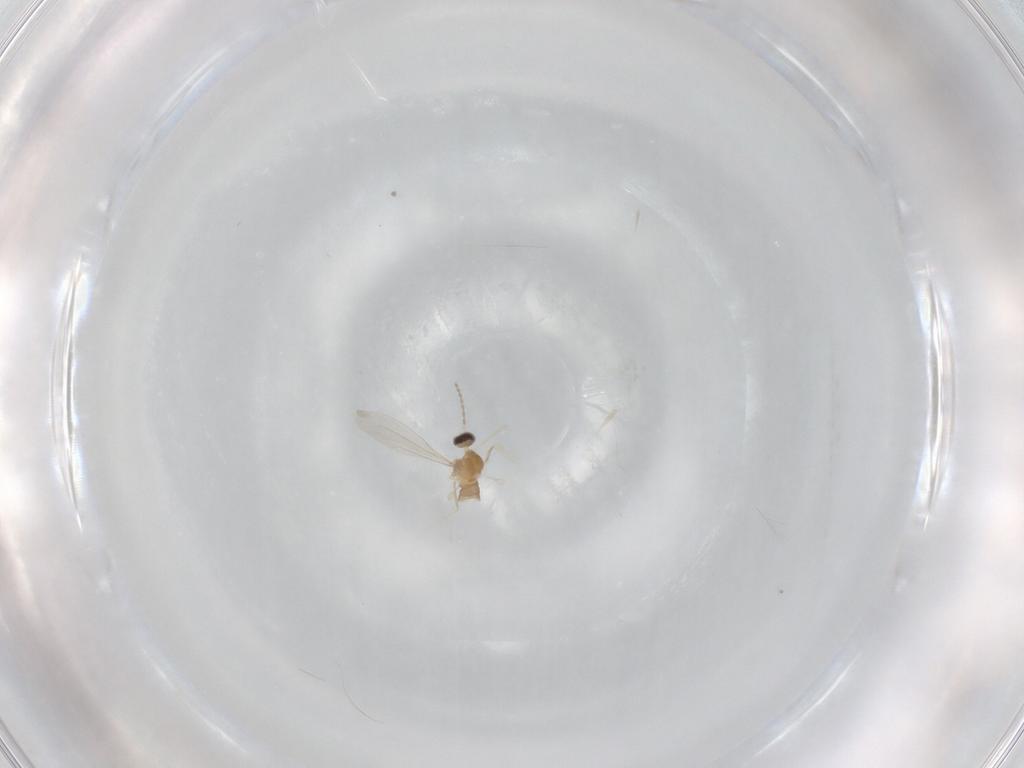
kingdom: Animalia
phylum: Arthropoda
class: Insecta
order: Diptera
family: Cecidomyiidae
